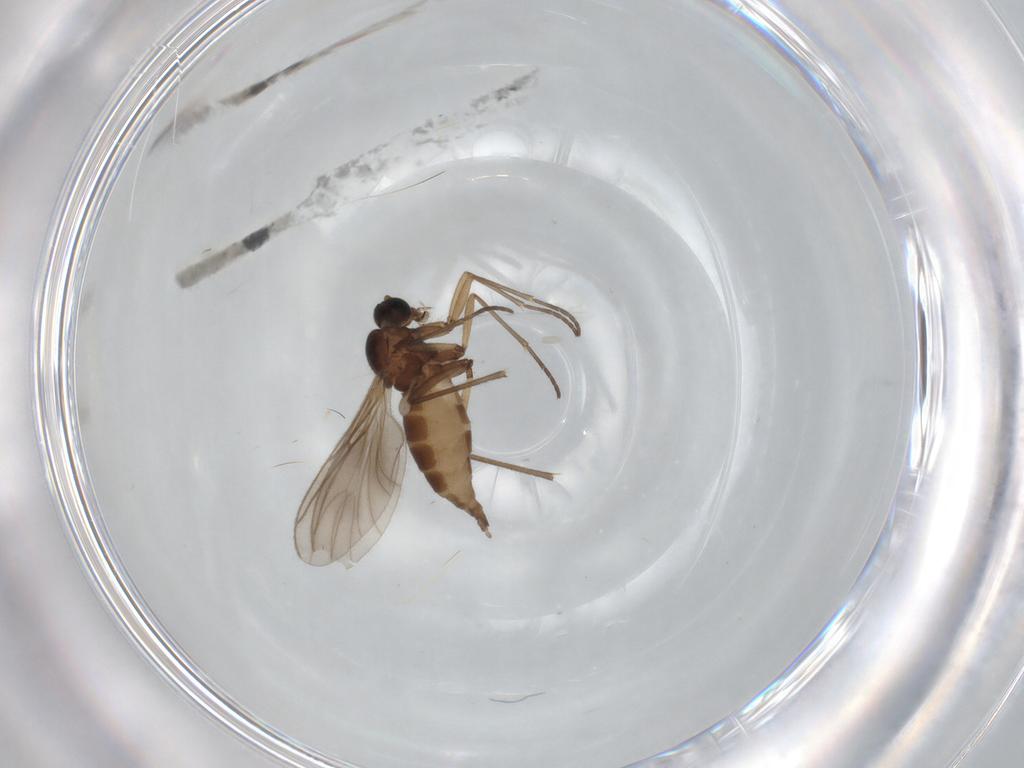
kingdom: Animalia
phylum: Arthropoda
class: Insecta
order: Diptera
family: Sciaridae
